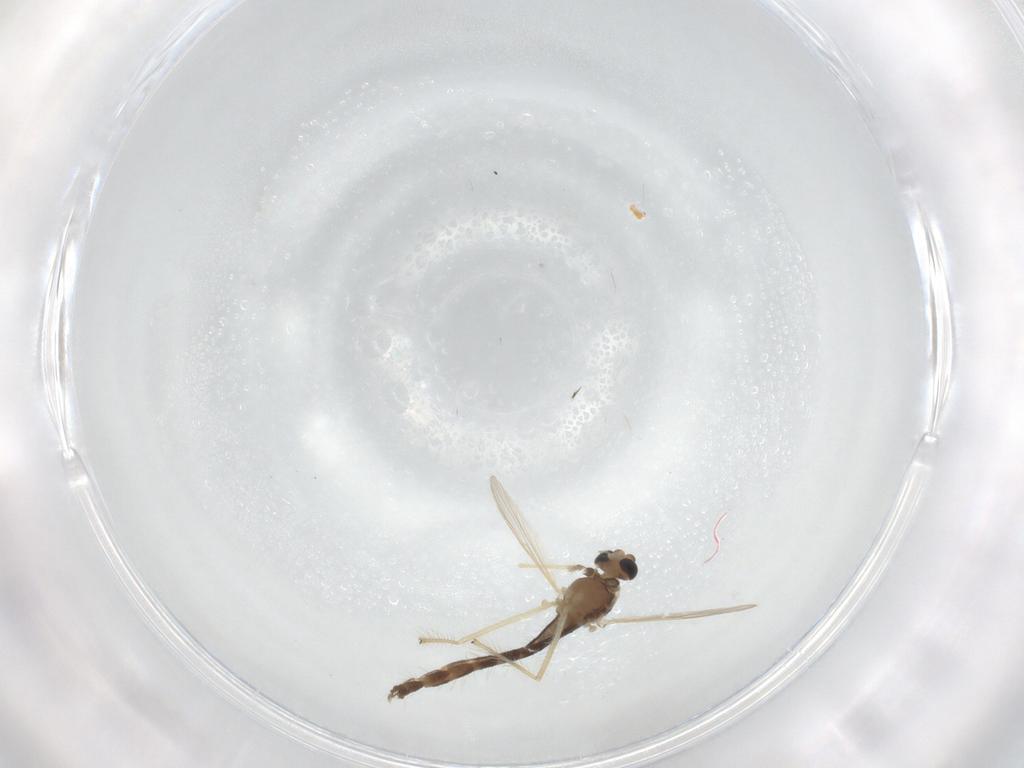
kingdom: Animalia
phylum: Arthropoda
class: Insecta
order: Diptera
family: Chironomidae
